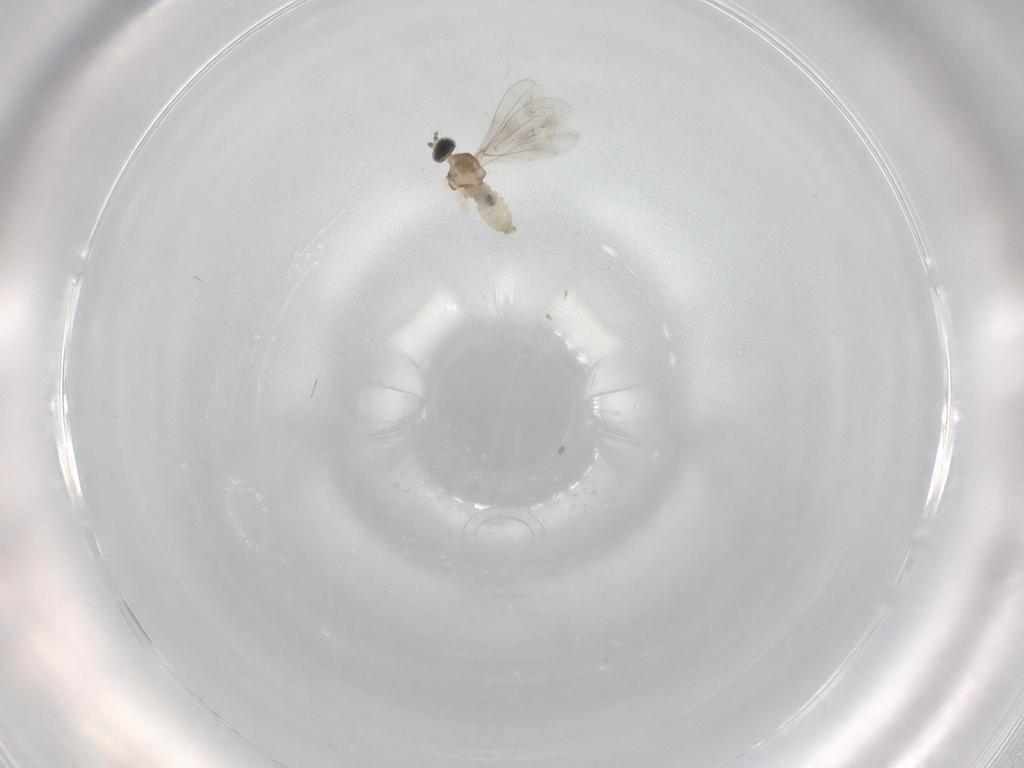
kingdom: Animalia
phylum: Arthropoda
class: Insecta
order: Diptera
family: Cecidomyiidae
